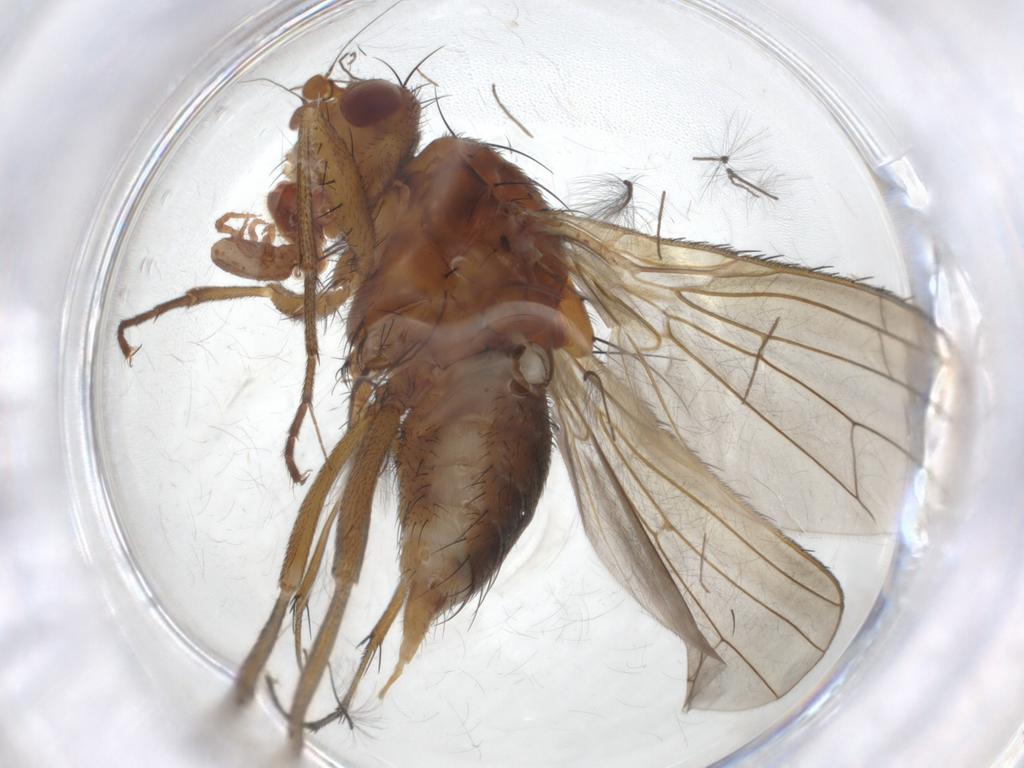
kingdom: Animalia
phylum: Arthropoda
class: Insecta
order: Diptera
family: Heleomyzidae
